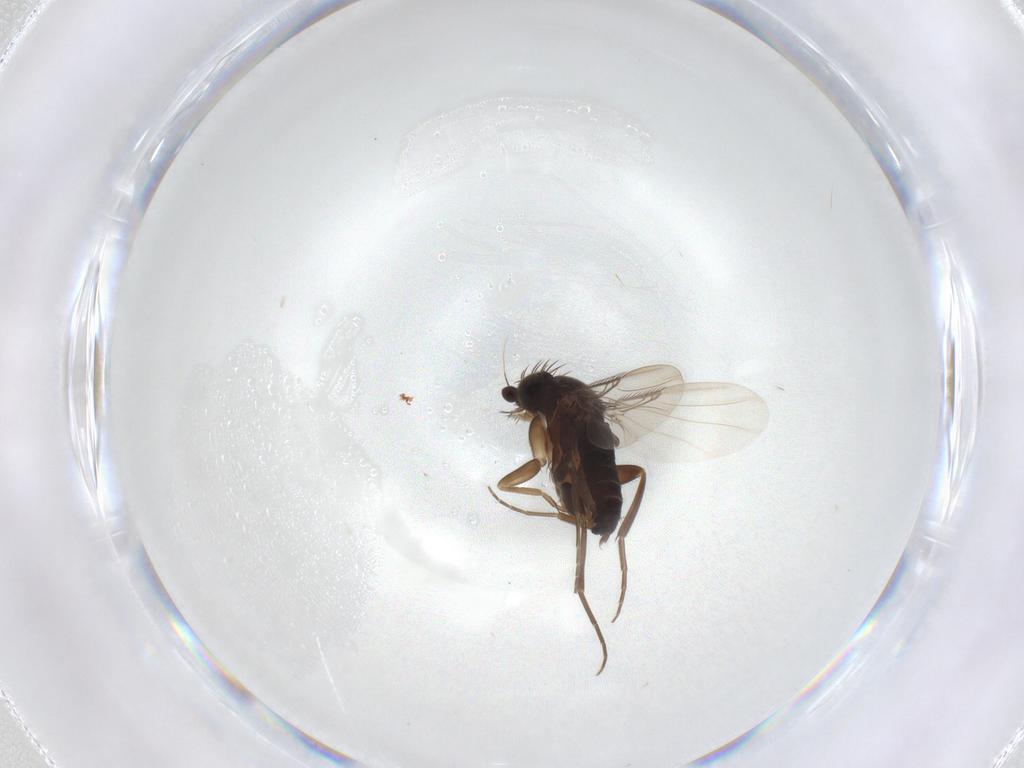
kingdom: Animalia
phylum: Arthropoda
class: Insecta
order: Diptera
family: Phoridae
